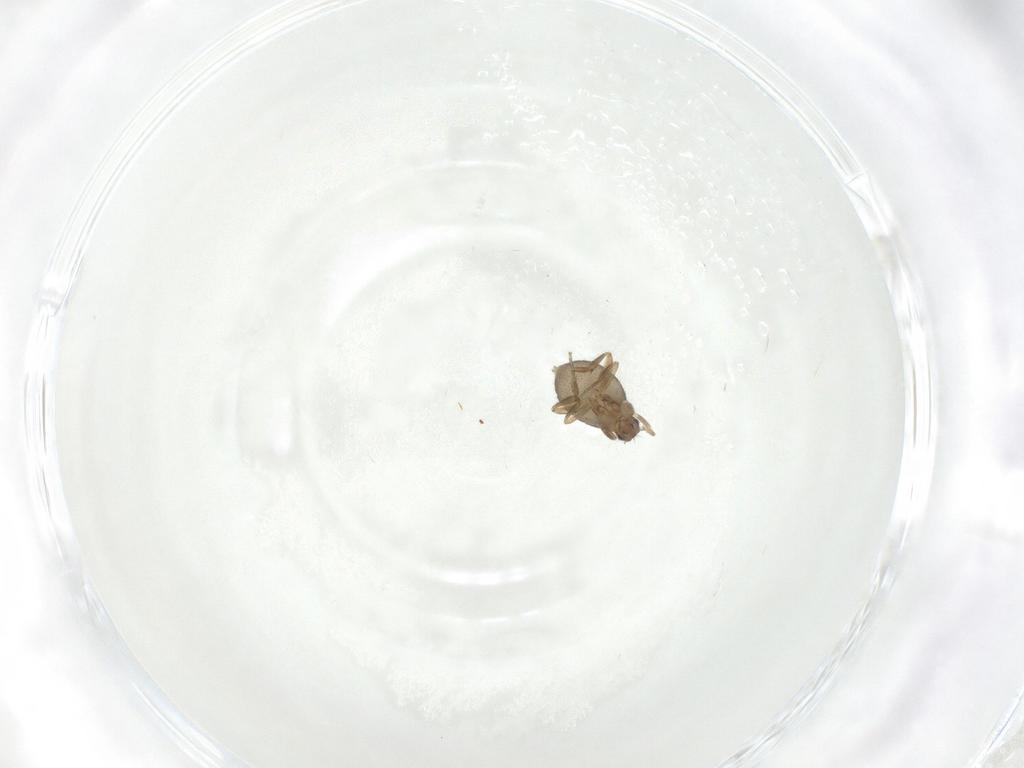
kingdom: Animalia
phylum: Arthropoda
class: Insecta
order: Diptera
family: Phoridae
